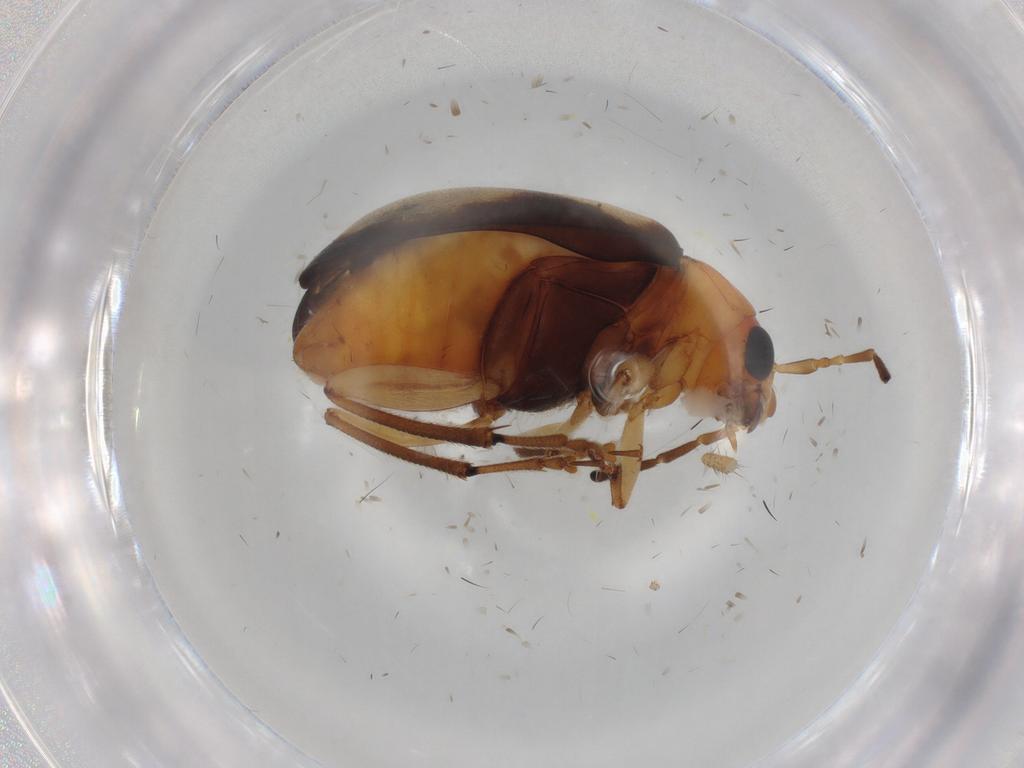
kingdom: Animalia
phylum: Arthropoda
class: Insecta
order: Coleoptera
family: Chrysomelidae
